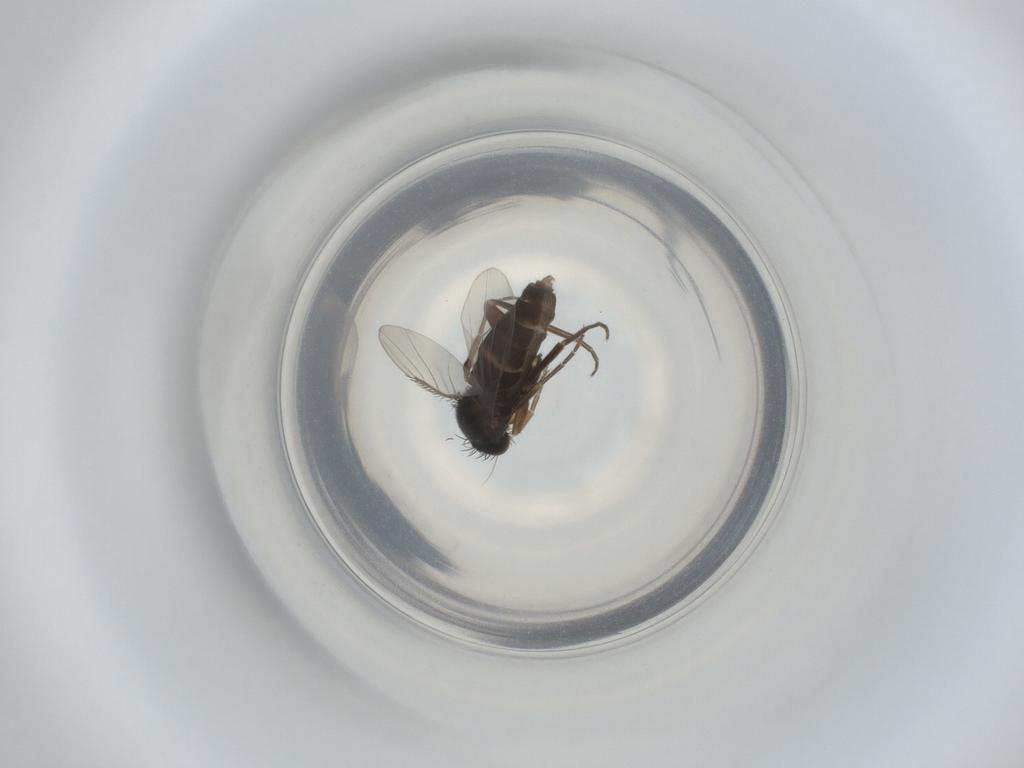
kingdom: Animalia
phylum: Arthropoda
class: Insecta
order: Diptera
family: Phoridae
